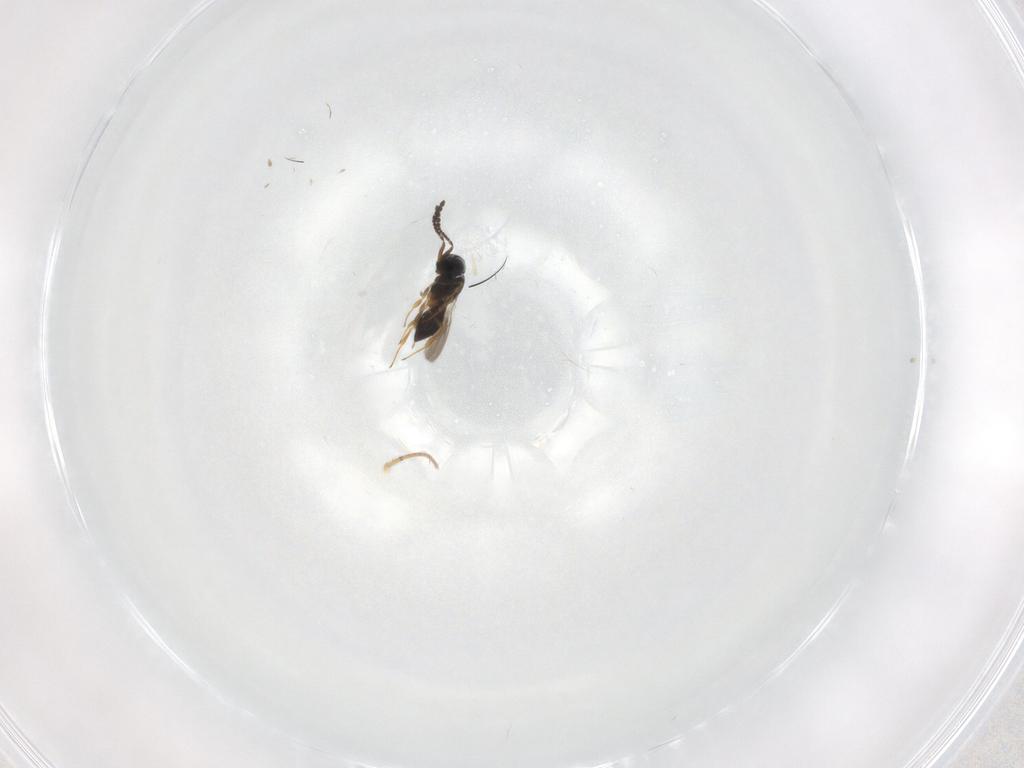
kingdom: Animalia
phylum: Arthropoda
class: Insecta
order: Hymenoptera
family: Scelionidae
